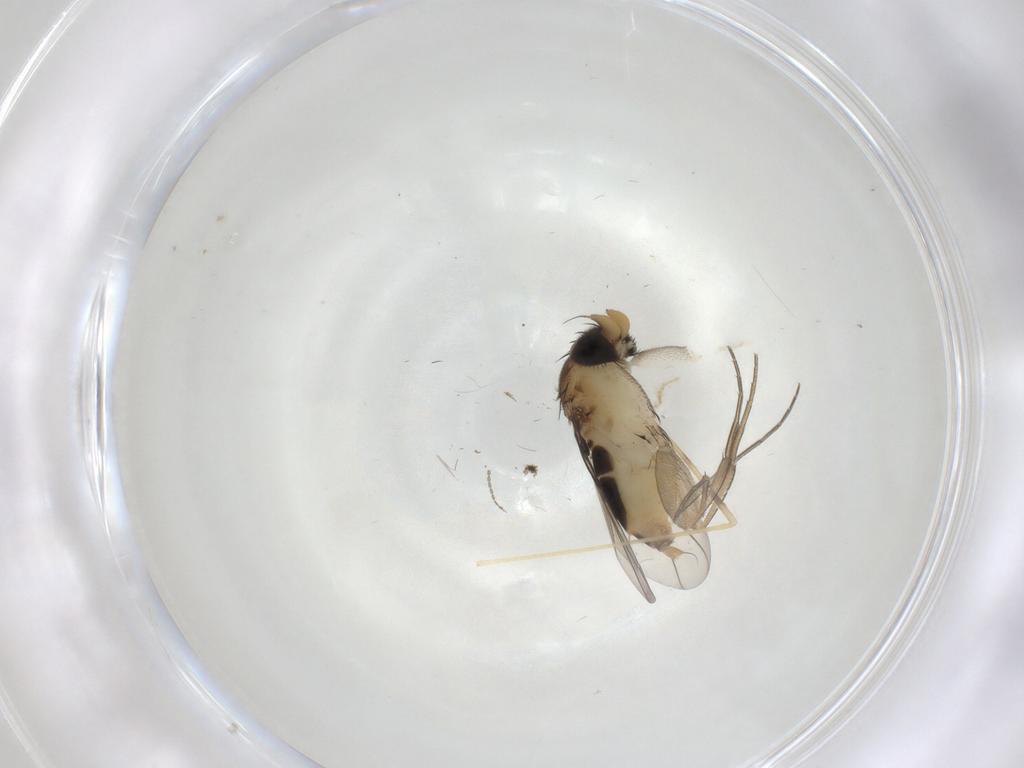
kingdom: Animalia
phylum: Arthropoda
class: Insecta
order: Diptera
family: Phoridae
